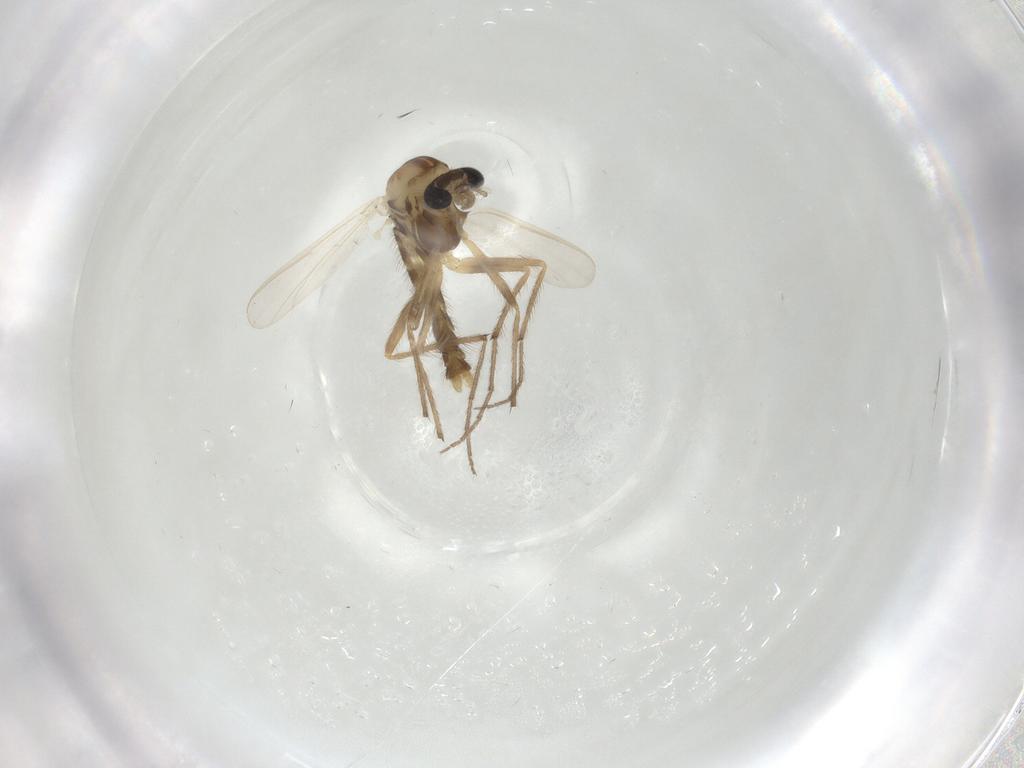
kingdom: Animalia
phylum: Arthropoda
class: Insecta
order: Diptera
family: Chironomidae
